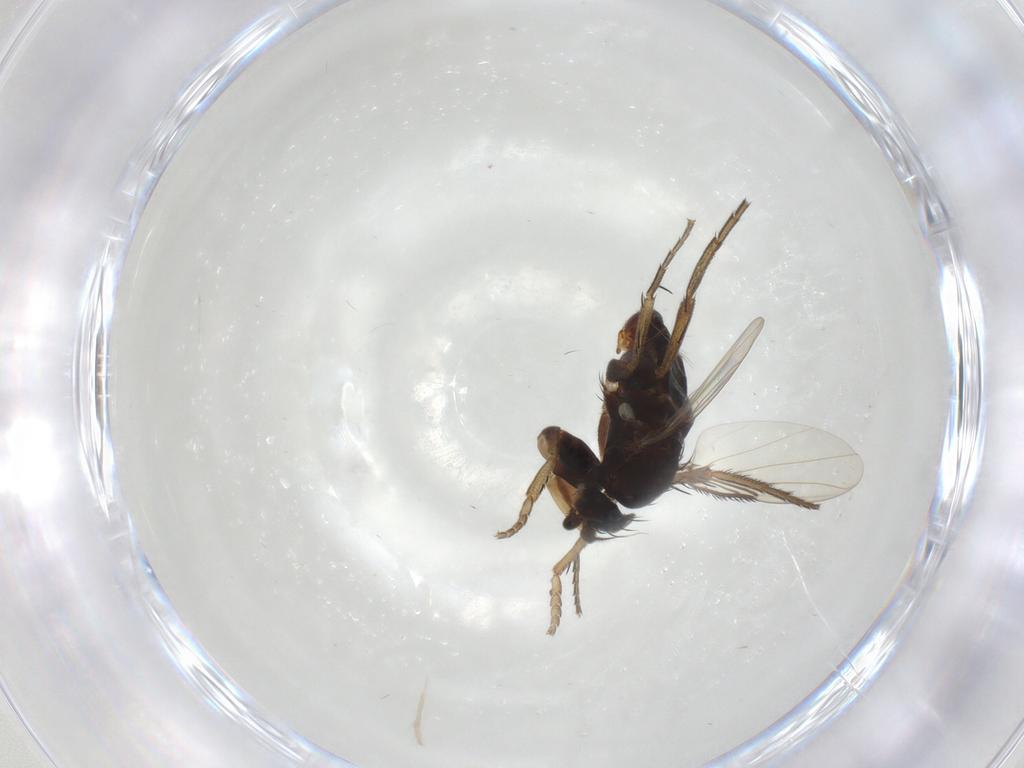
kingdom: Animalia
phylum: Arthropoda
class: Insecta
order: Diptera
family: Phoridae
